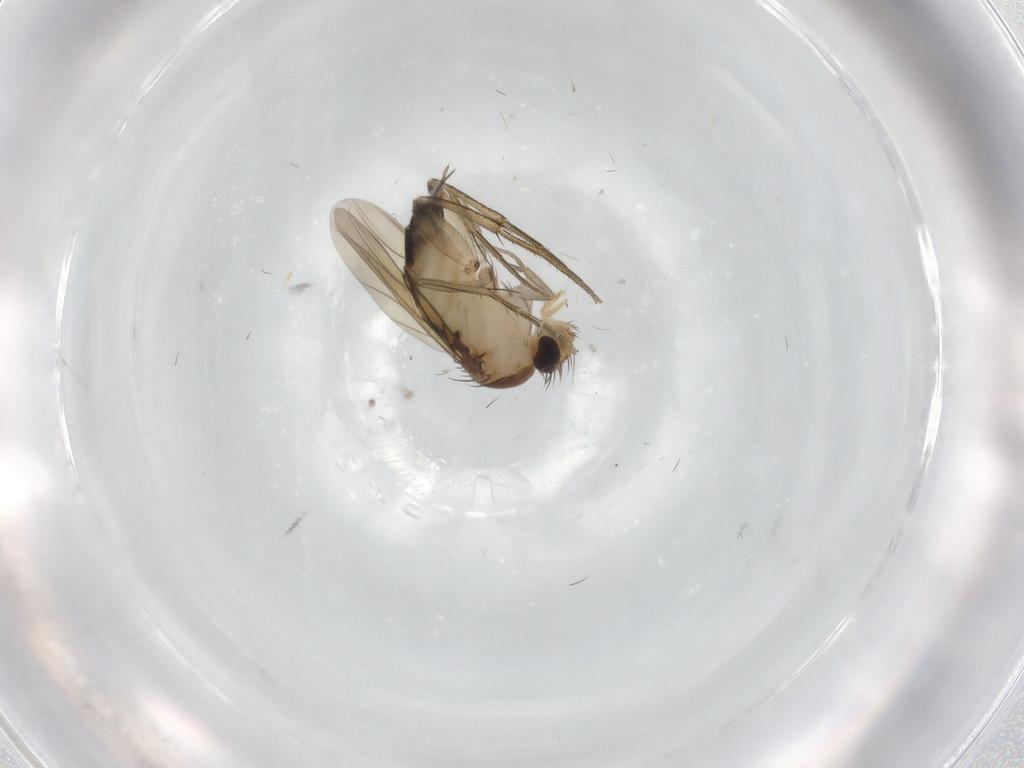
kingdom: Animalia
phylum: Arthropoda
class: Insecta
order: Diptera
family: Phoridae
